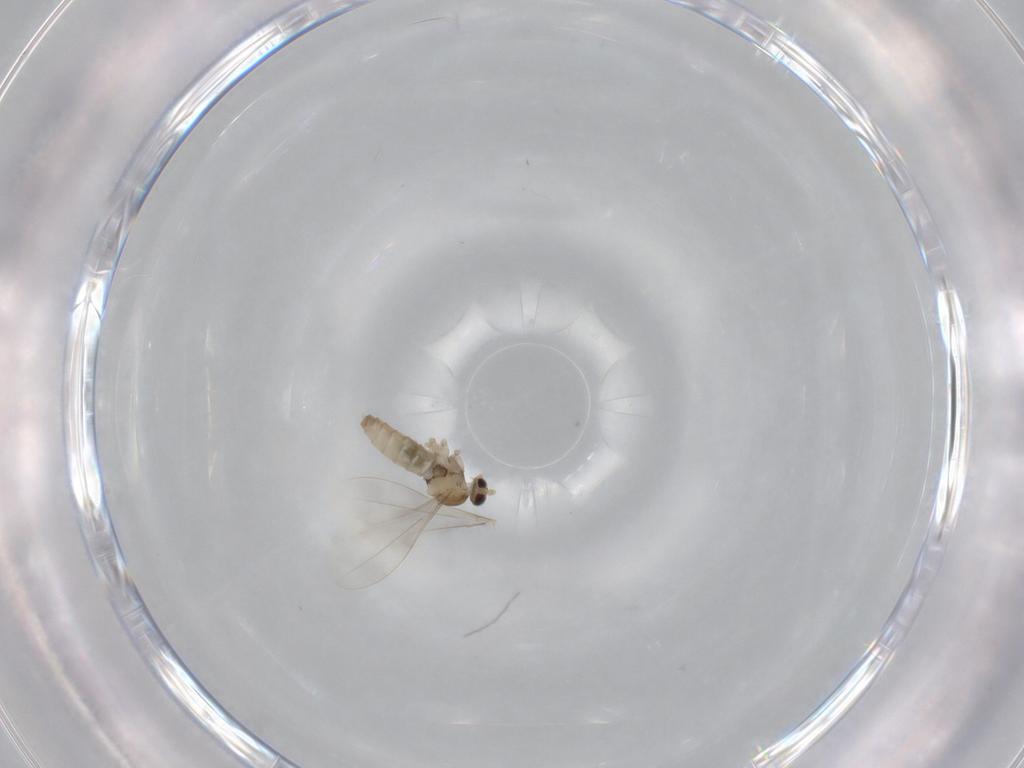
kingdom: Animalia
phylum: Arthropoda
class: Insecta
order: Diptera
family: Cecidomyiidae
